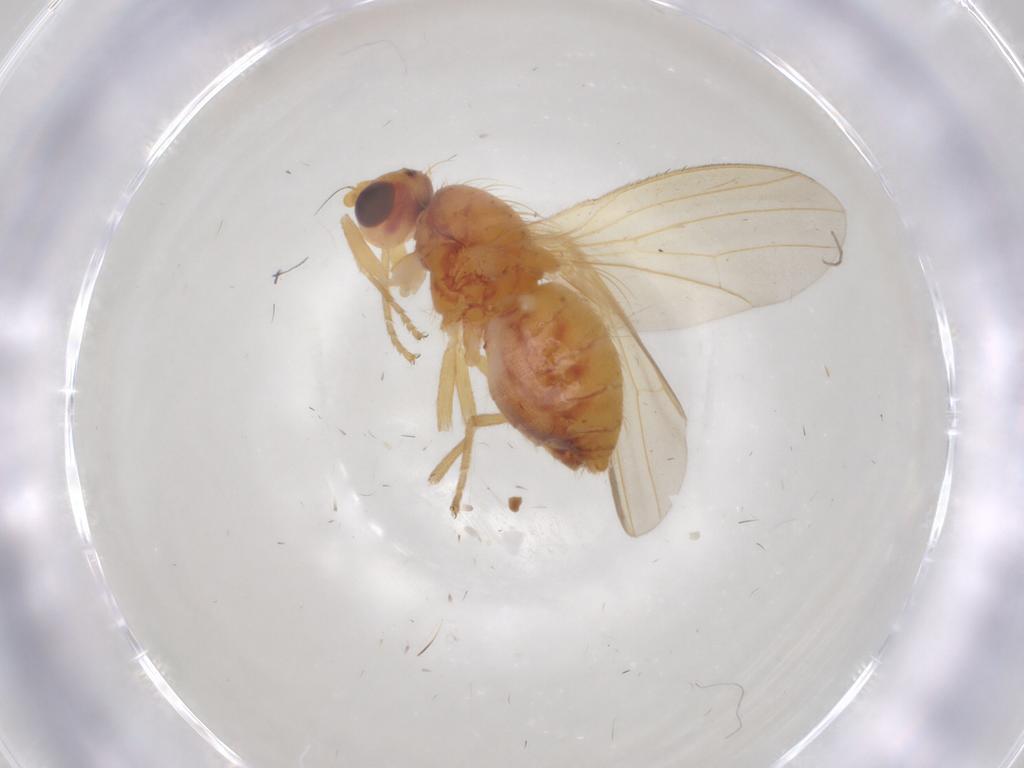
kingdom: Animalia
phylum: Arthropoda
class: Insecta
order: Diptera
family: Heleomyzidae
